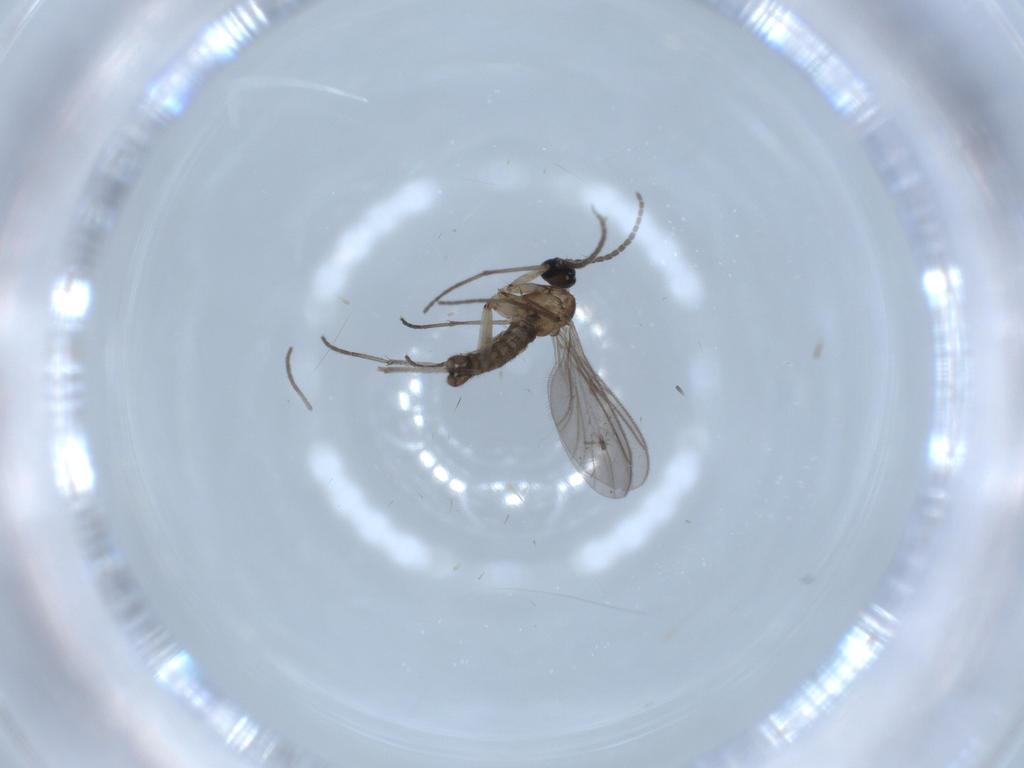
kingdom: Animalia
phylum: Arthropoda
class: Insecta
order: Diptera
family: Sciaridae
